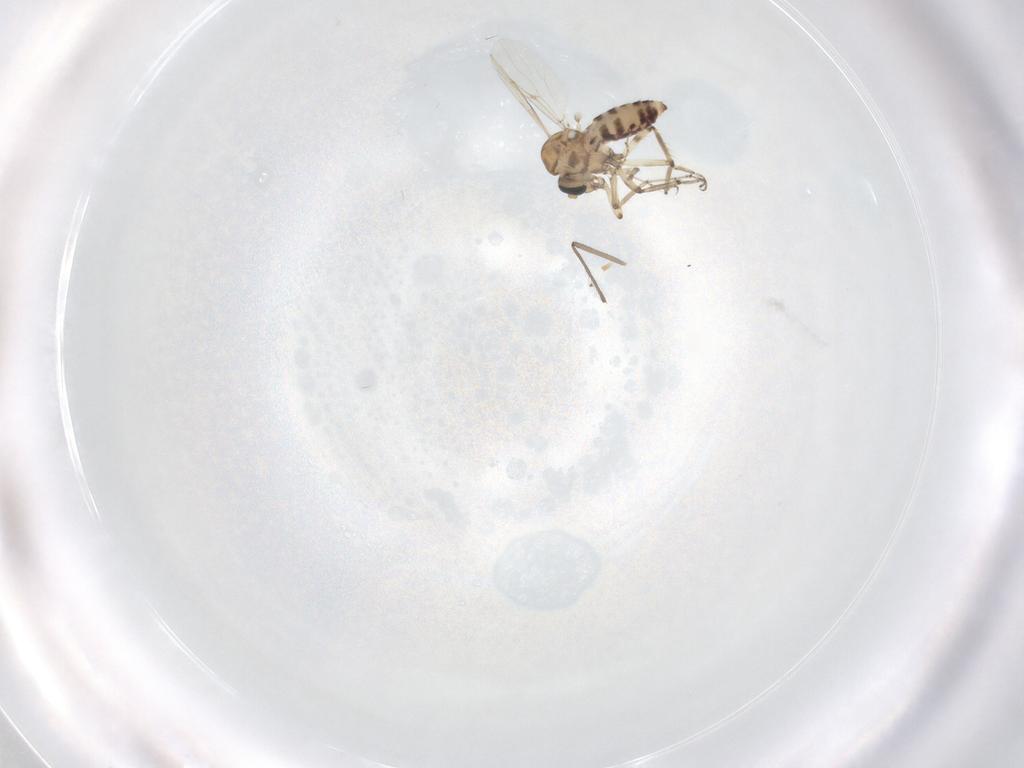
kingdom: Animalia
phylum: Arthropoda
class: Insecta
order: Diptera
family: Ceratopogonidae
